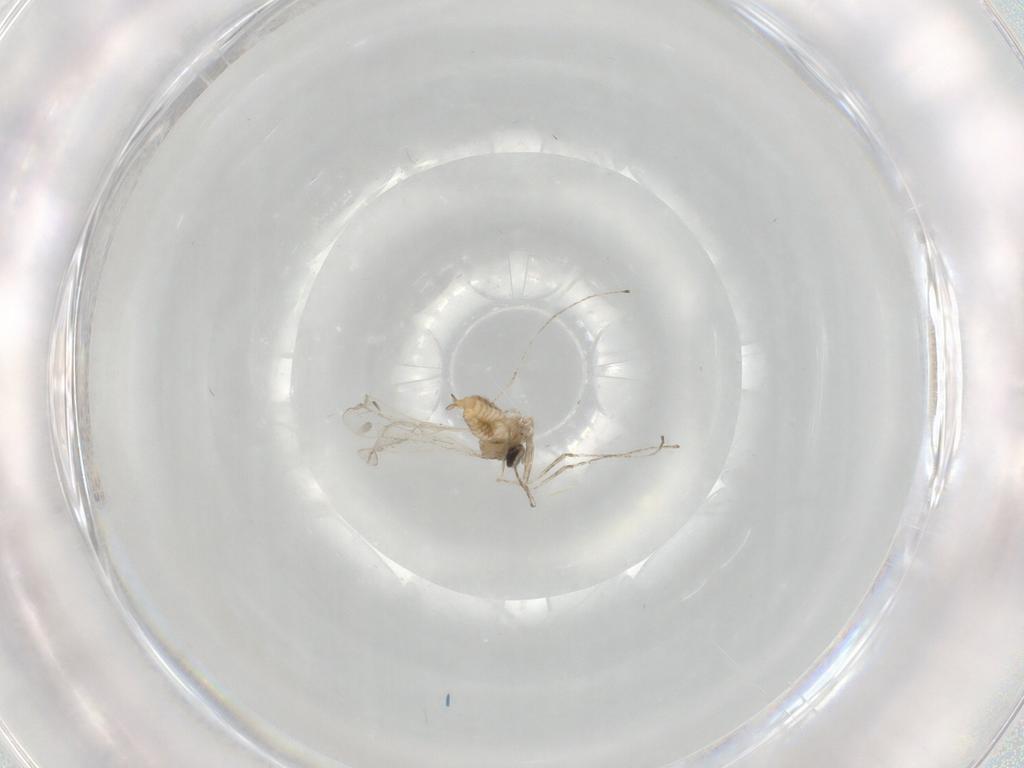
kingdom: Animalia
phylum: Arthropoda
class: Insecta
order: Diptera
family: Cecidomyiidae
